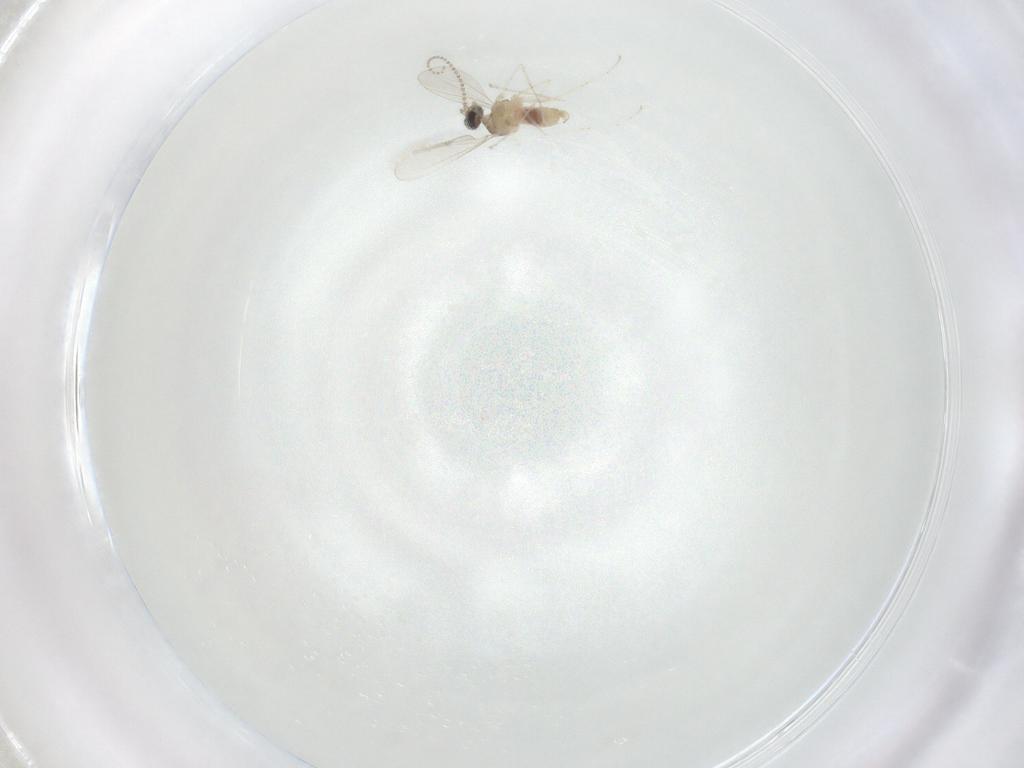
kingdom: Animalia
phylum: Arthropoda
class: Insecta
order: Diptera
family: Cecidomyiidae
